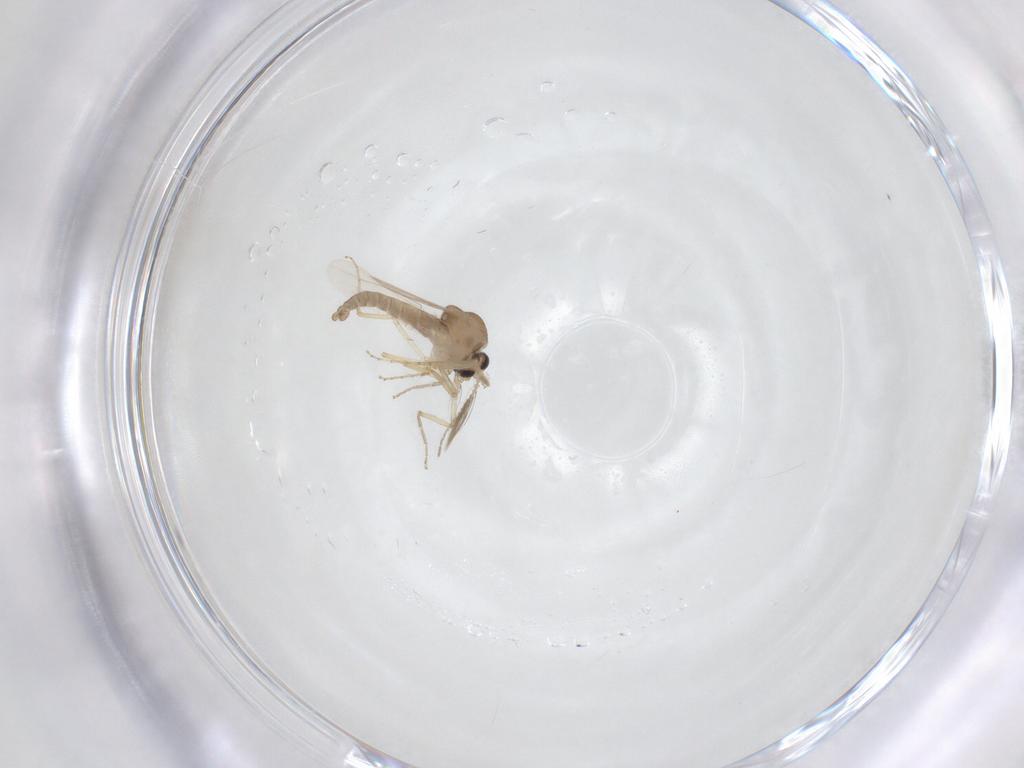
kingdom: Animalia
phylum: Arthropoda
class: Insecta
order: Diptera
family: Ceratopogonidae
